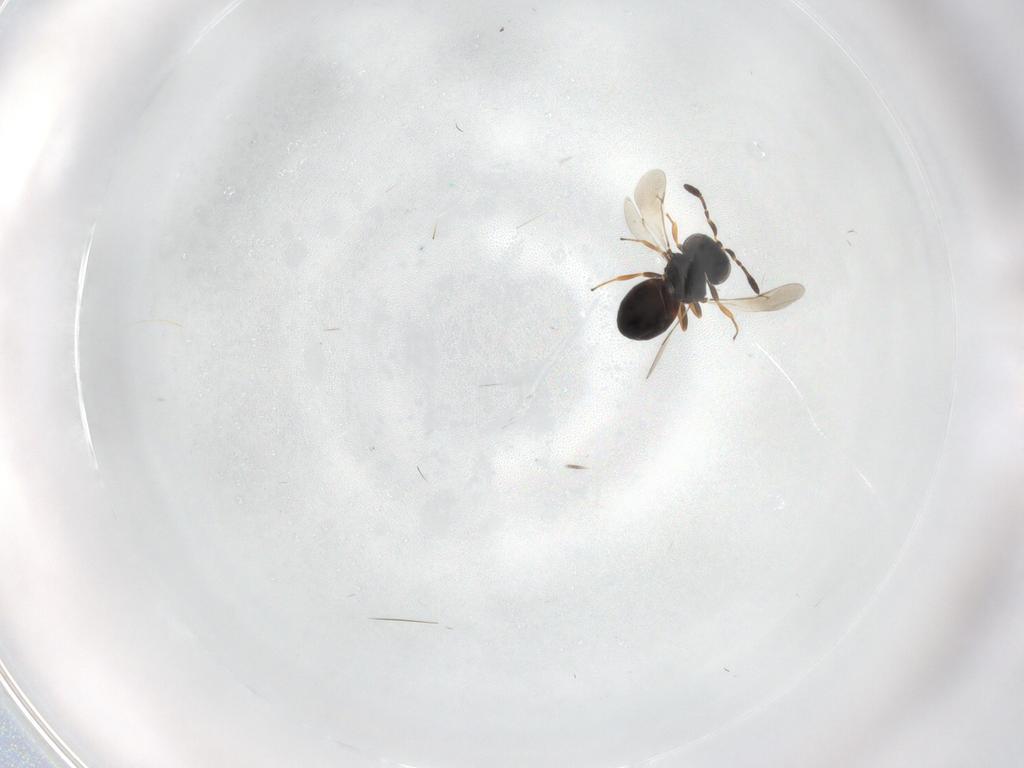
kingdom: Animalia
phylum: Arthropoda
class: Insecta
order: Hymenoptera
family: Scelionidae
